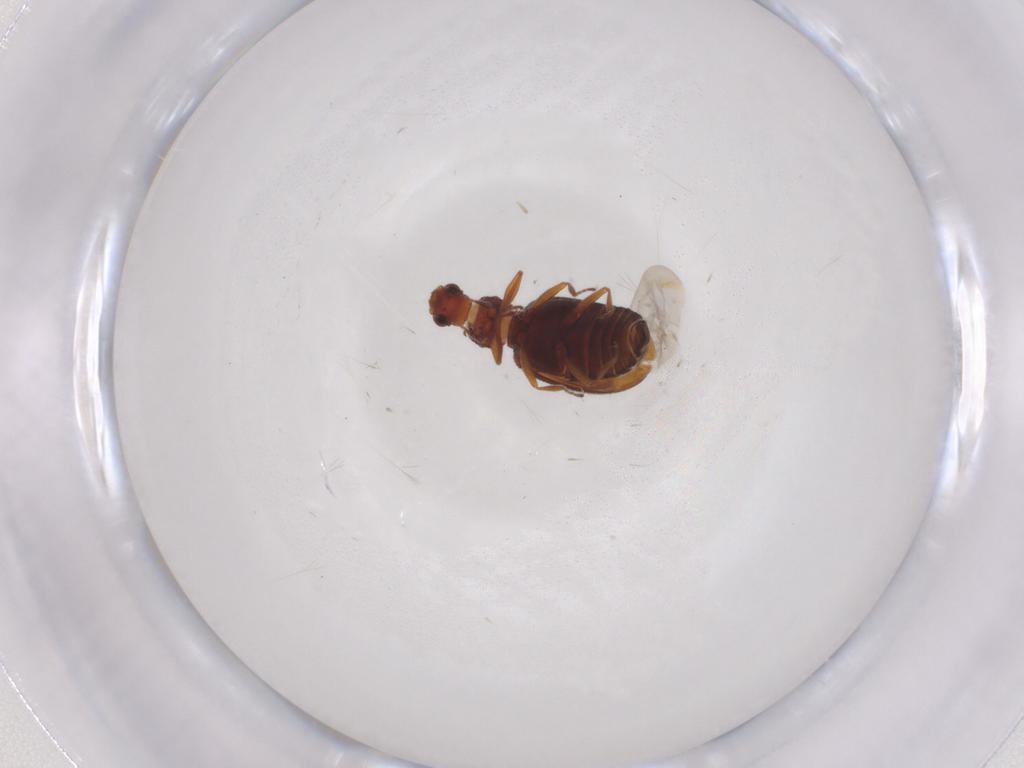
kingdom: Animalia
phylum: Arthropoda
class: Insecta
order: Coleoptera
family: Latridiidae
